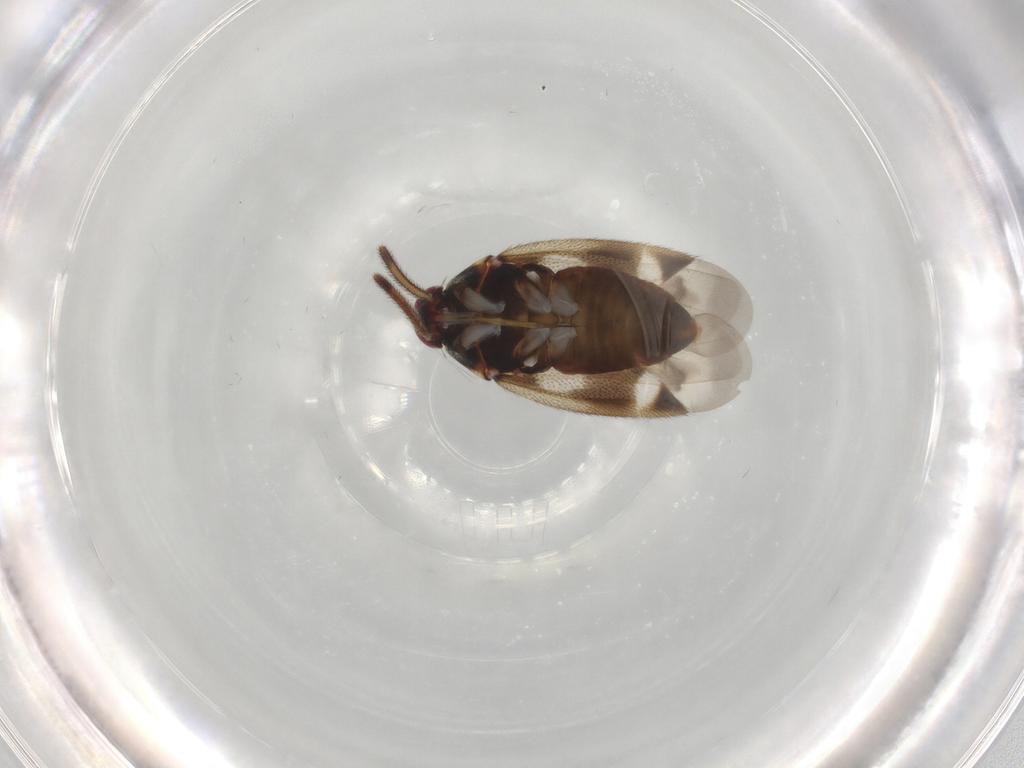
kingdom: Animalia
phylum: Arthropoda
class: Insecta
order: Hemiptera
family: Miridae
